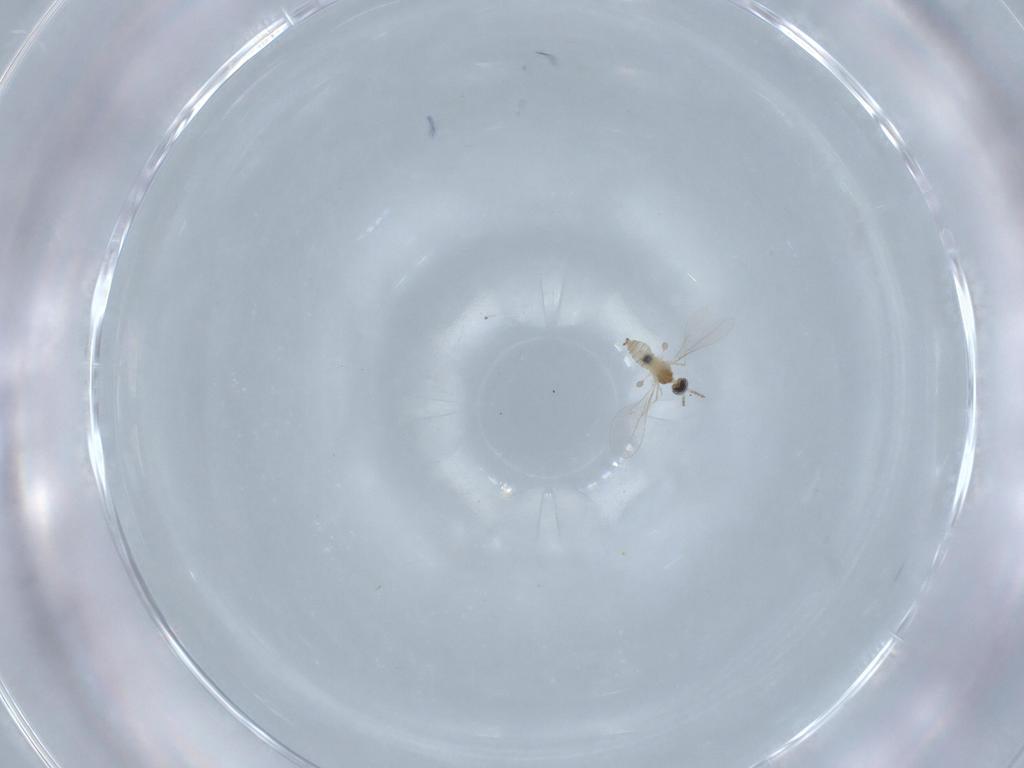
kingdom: Animalia
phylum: Arthropoda
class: Insecta
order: Diptera
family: Cecidomyiidae
